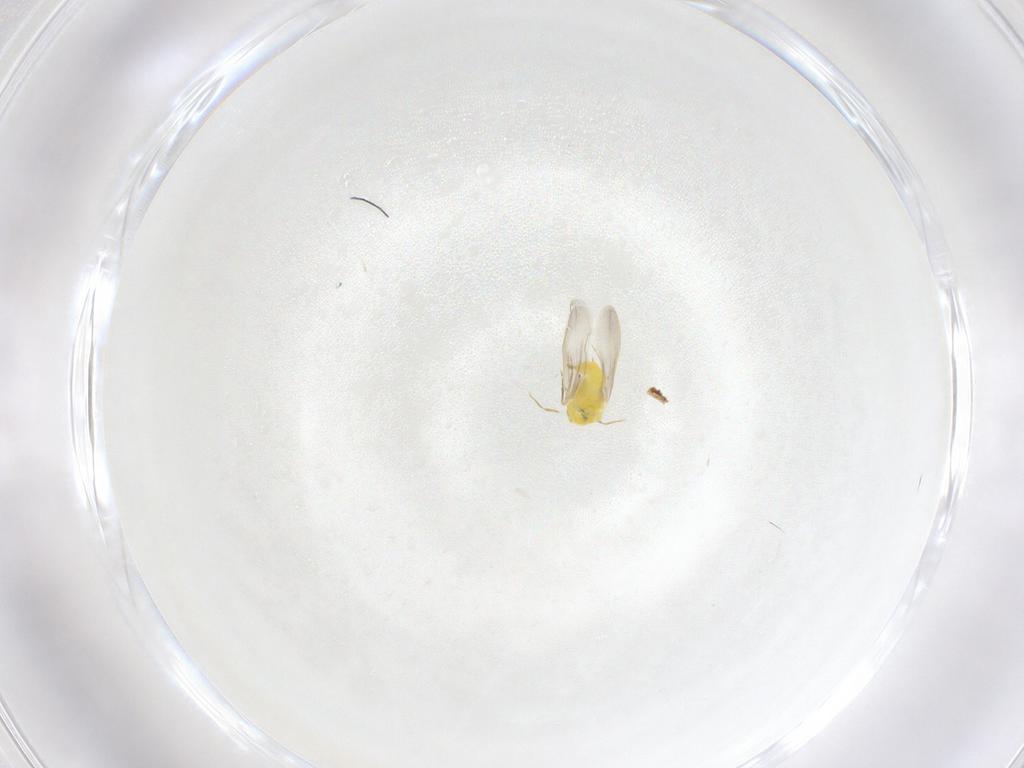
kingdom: Animalia
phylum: Arthropoda
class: Insecta
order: Hemiptera
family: Aleyrodidae
